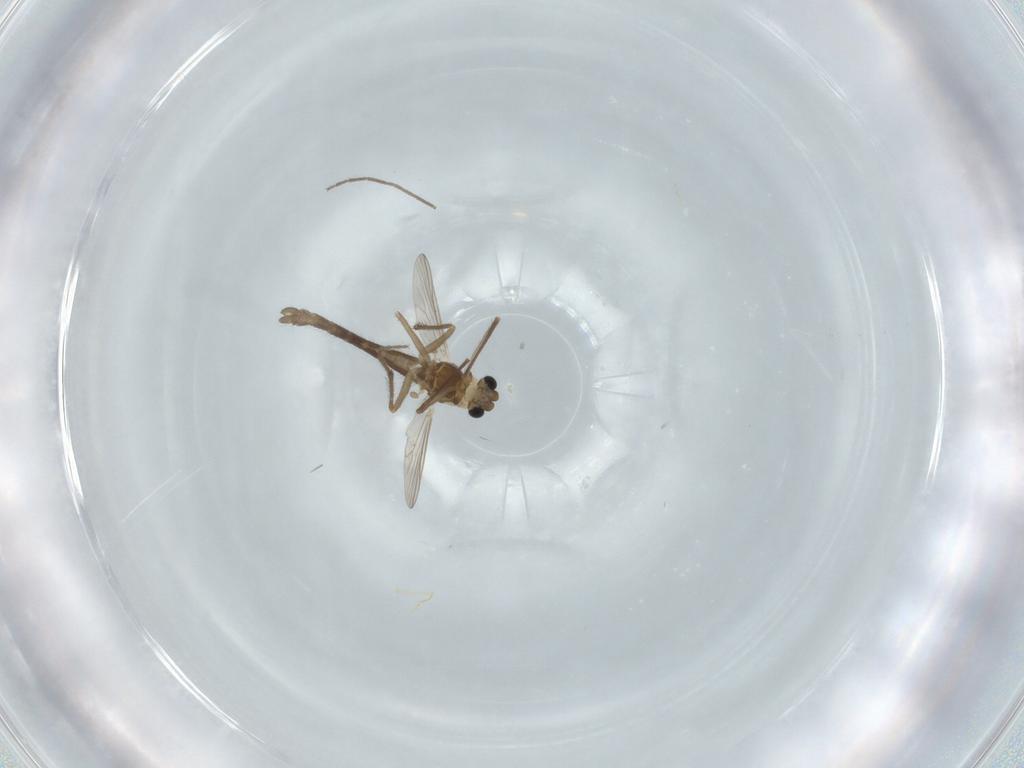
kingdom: Animalia
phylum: Arthropoda
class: Insecta
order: Diptera
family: Chironomidae
